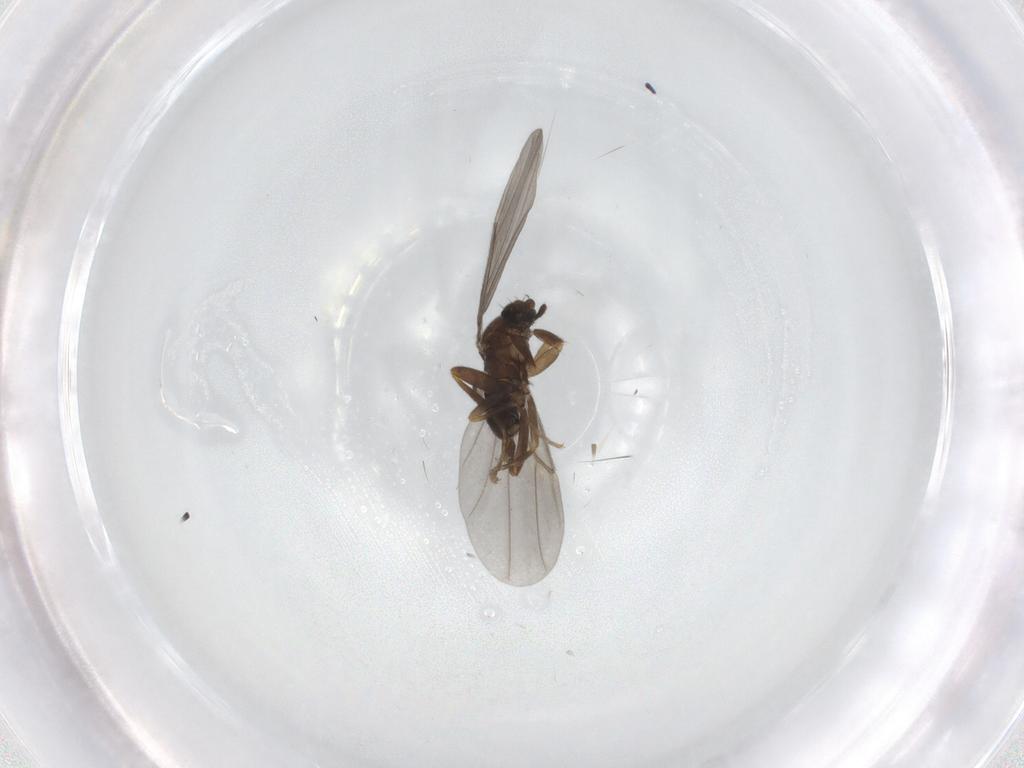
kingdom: Animalia
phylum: Arthropoda
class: Insecta
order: Diptera
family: Phoridae
